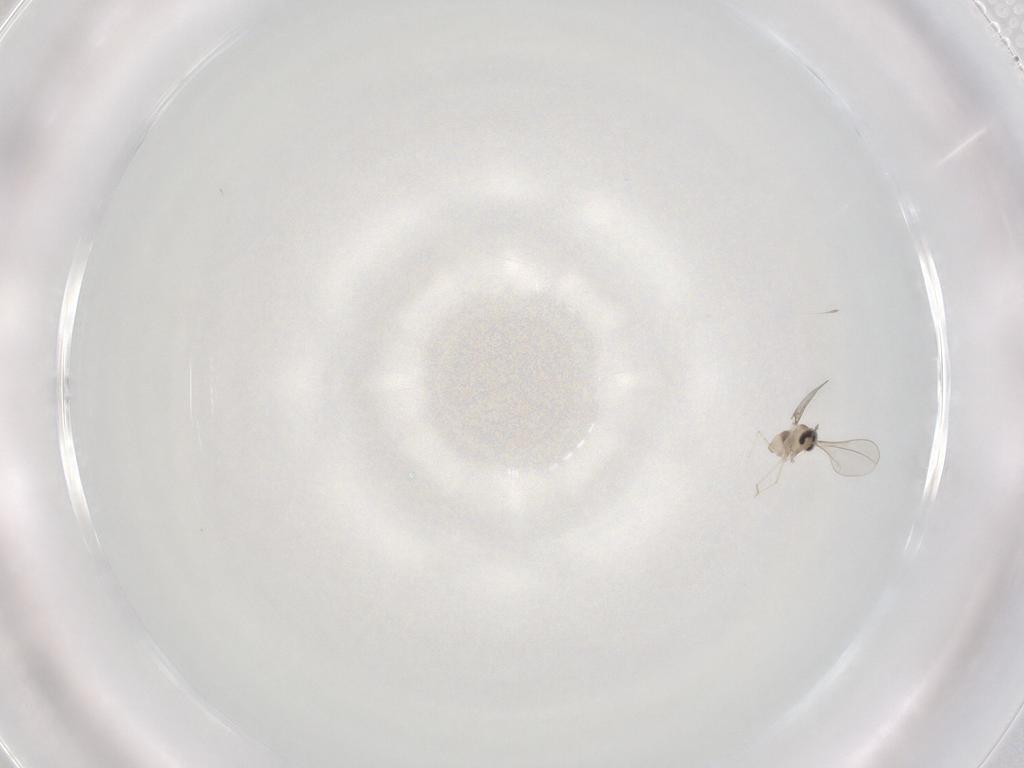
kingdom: Animalia
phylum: Arthropoda
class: Insecta
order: Diptera
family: Cecidomyiidae
